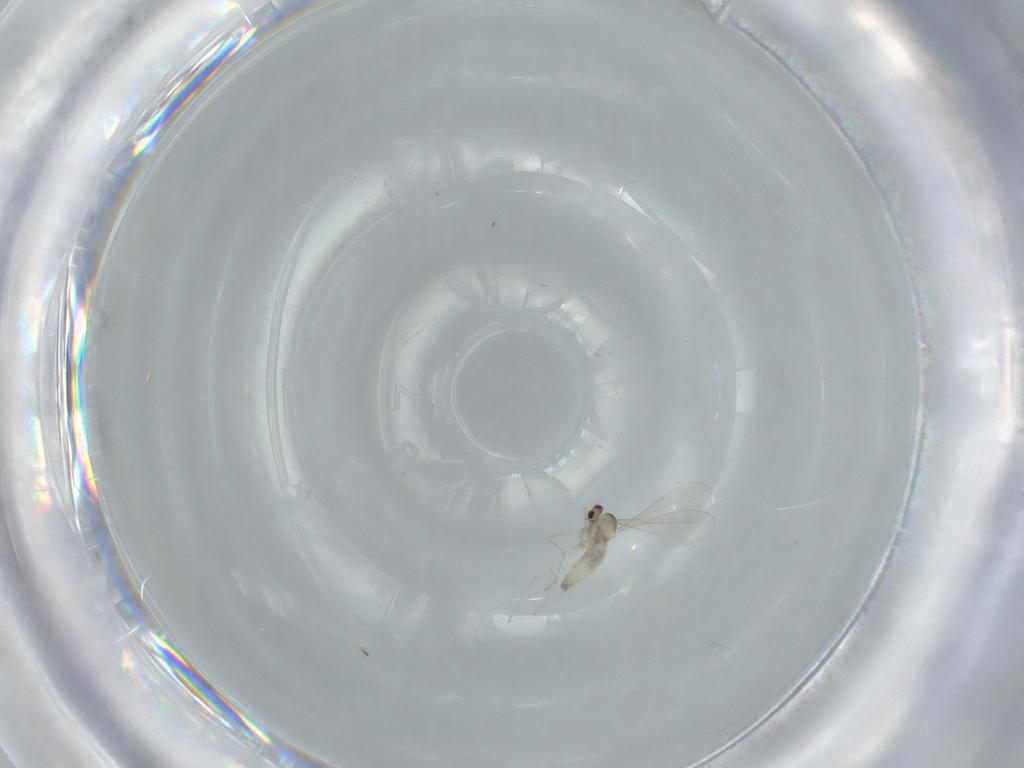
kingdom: Animalia
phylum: Arthropoda
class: Insecta
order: Diptera
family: Cecidomyiidae
